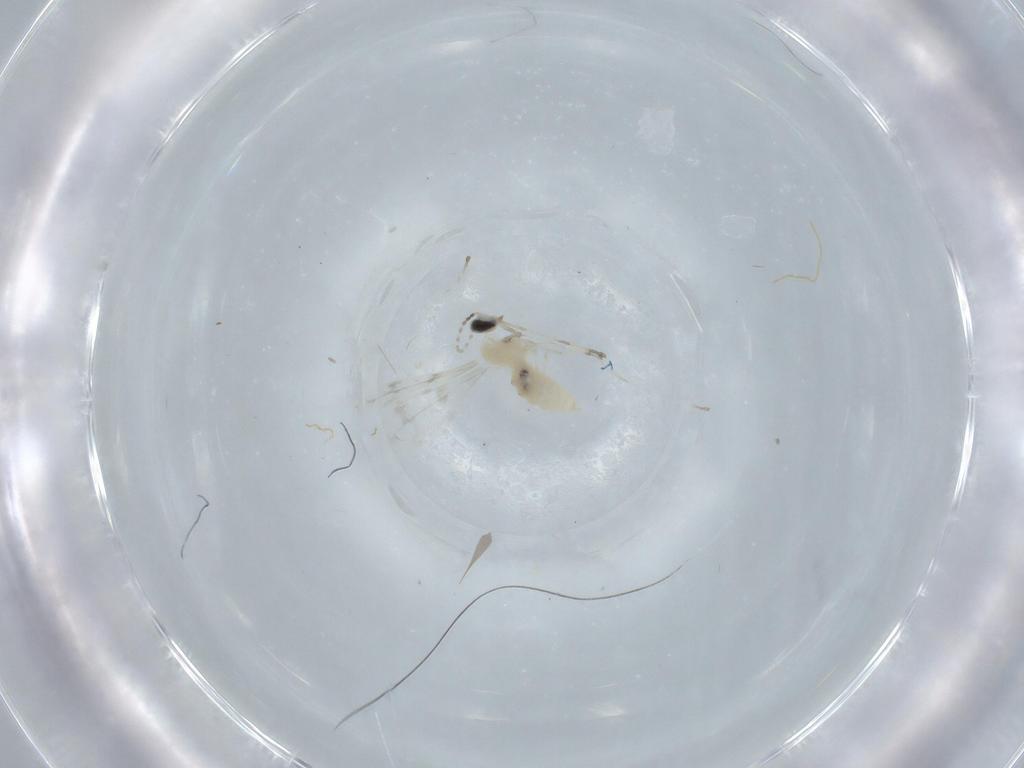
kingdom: Animalia
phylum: Arthropoda
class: Insecta
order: Diptera
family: Cecidomyiidae
